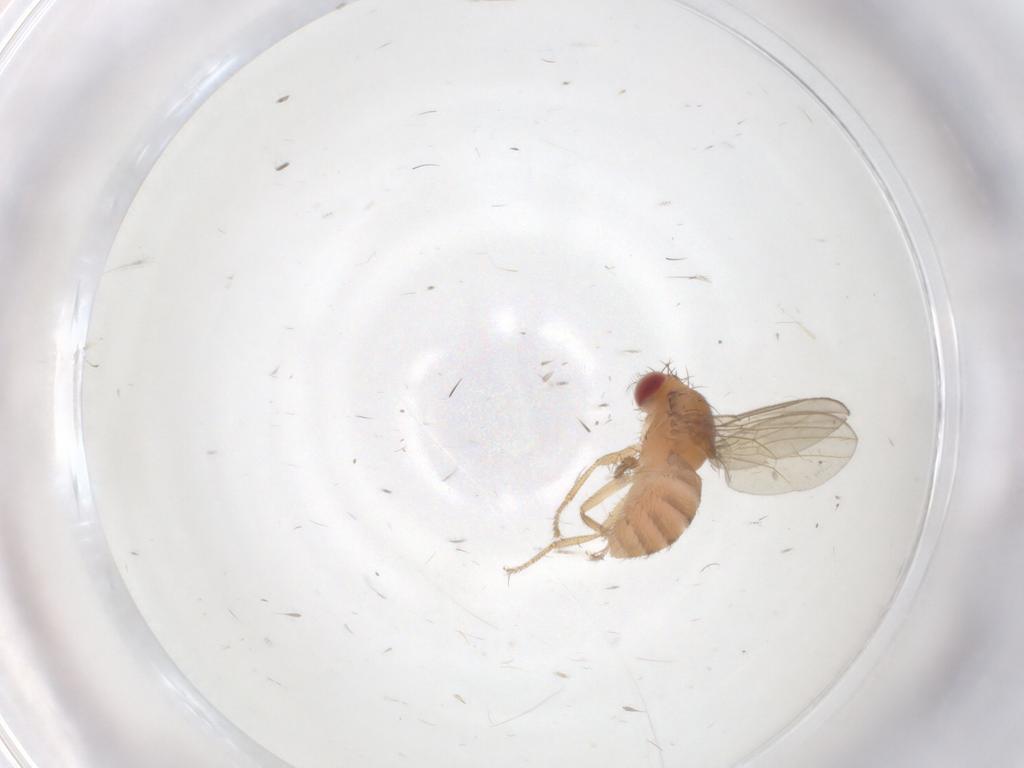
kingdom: Animalia
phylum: Arthropoda
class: Insecta
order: Diptera
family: Drosophilidae
